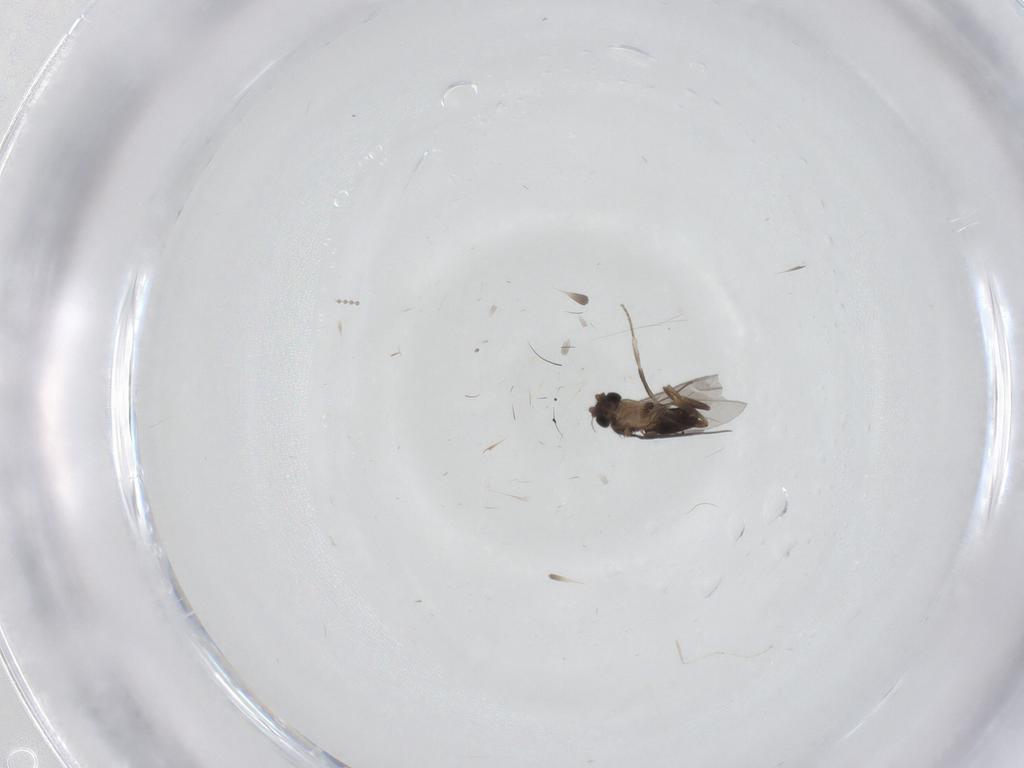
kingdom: Animalia
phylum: Arthropoda
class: Insecta
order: Diptera
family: Psychodidae
